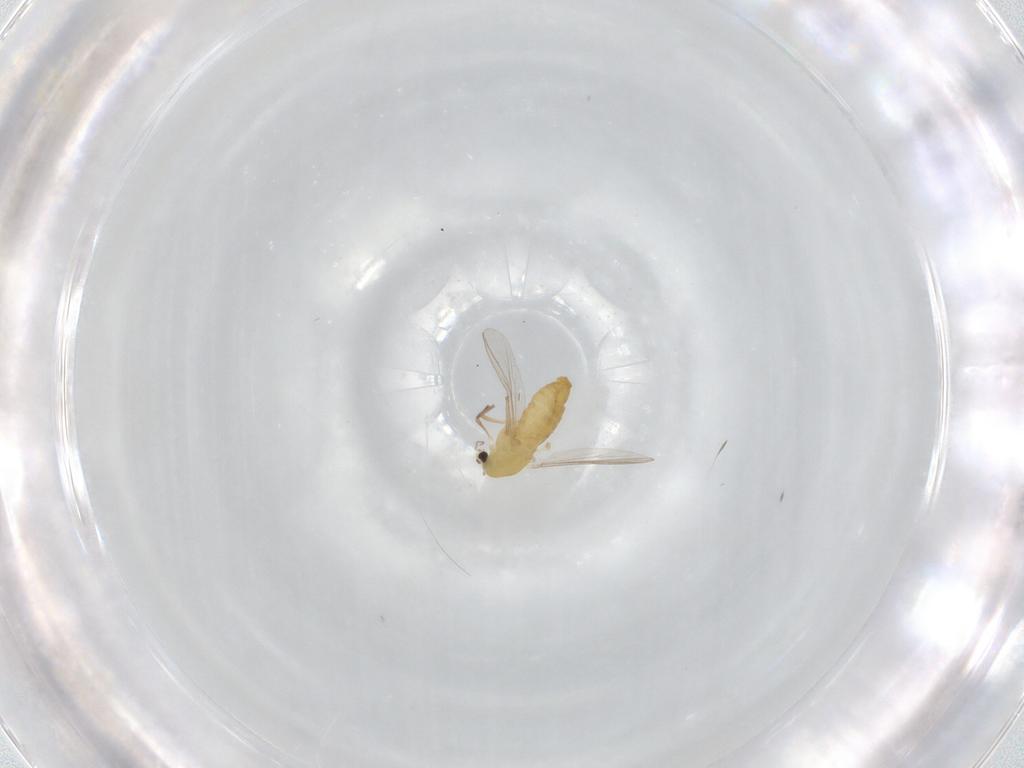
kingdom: Animalia
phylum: Arthropoda
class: Insecta
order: Diptera
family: Chironomidae
